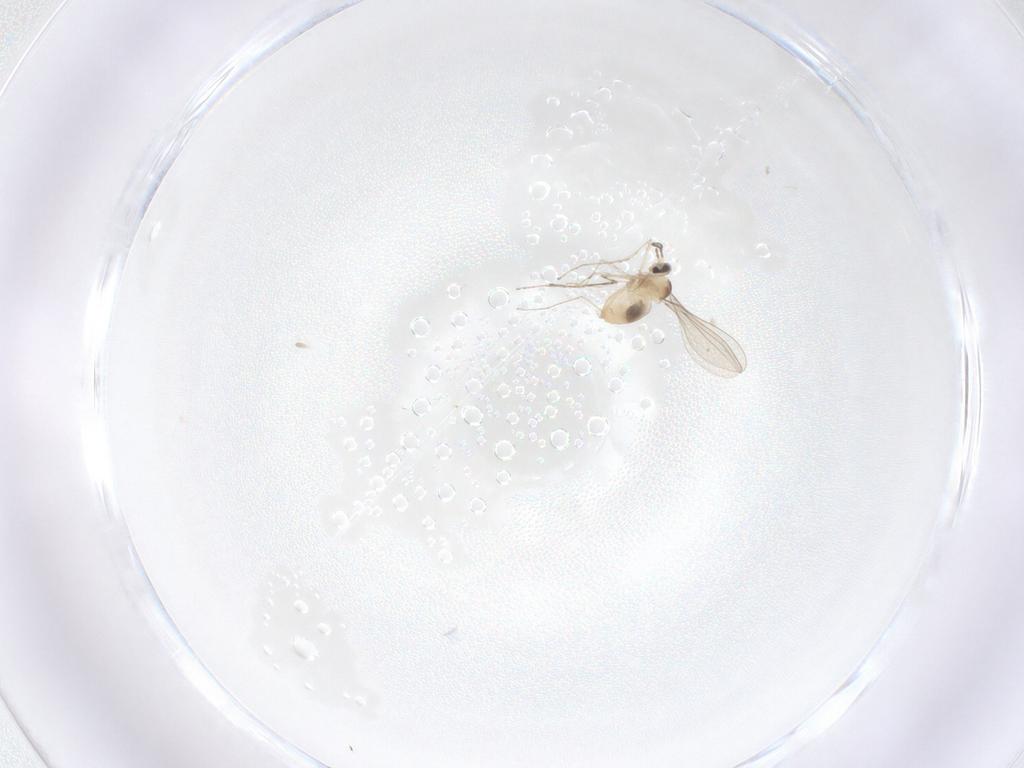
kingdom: Animalia
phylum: Arthropoda
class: Insecta
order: Diptera
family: Cecidomyiidae
